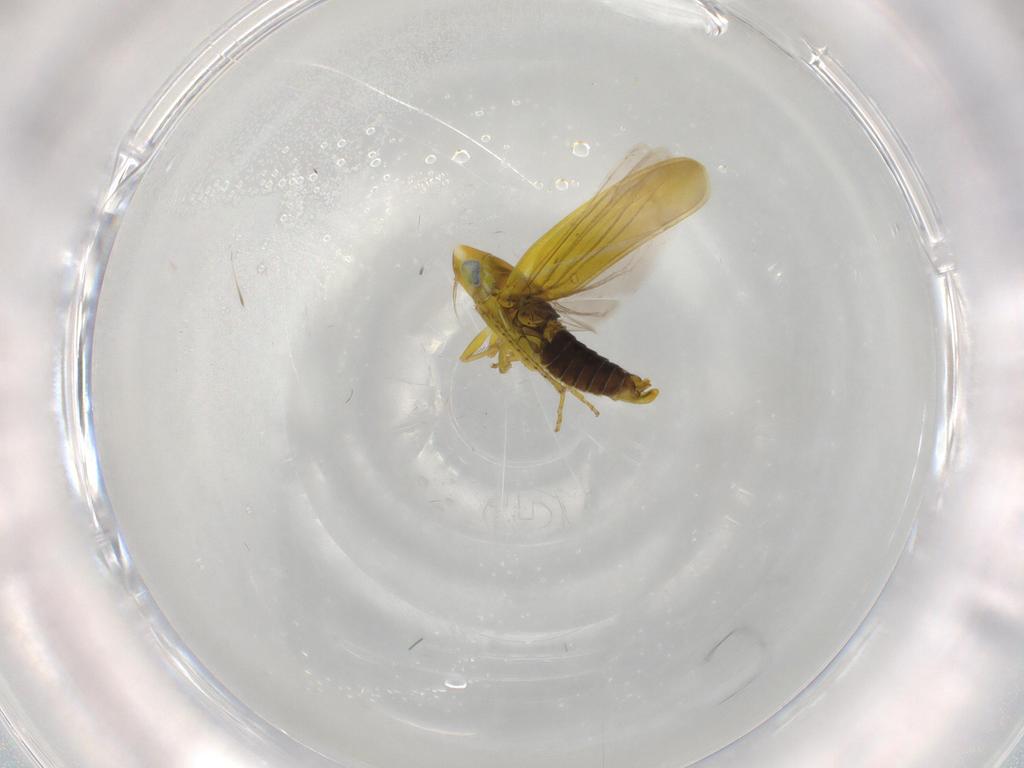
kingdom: Animalia
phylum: Arthropoda
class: Insecta
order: Hemiptera
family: Cicadellidae
